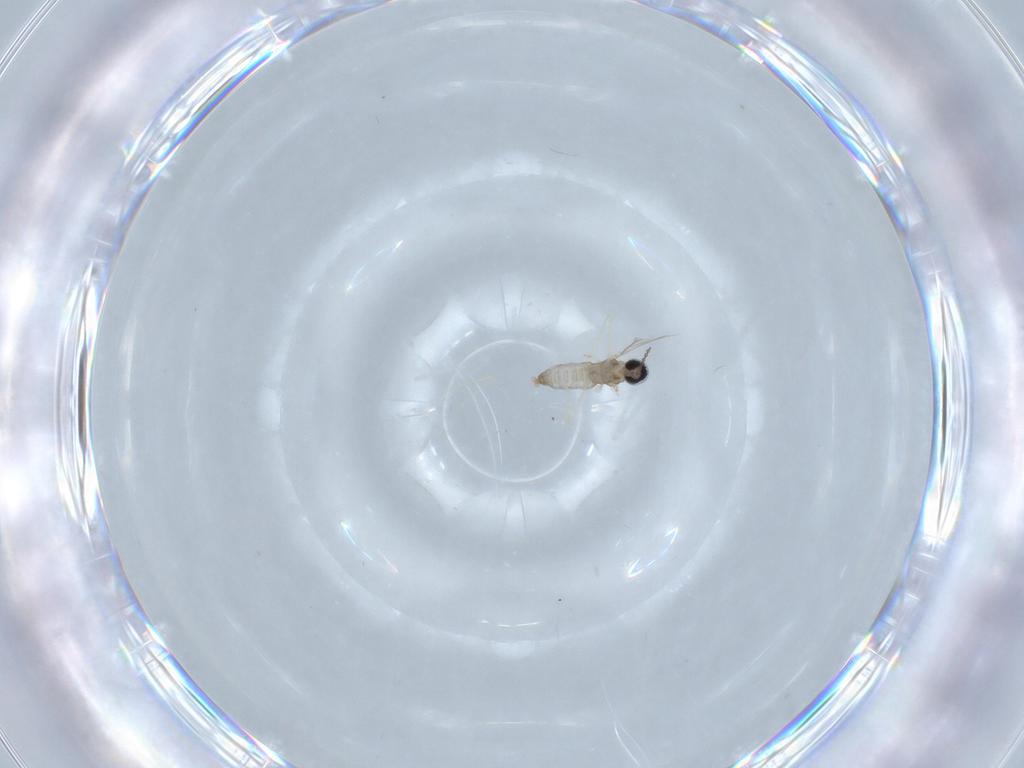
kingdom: Animalia
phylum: Arthropoda
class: Insecta
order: Diptera
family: Cecidomyiidae
